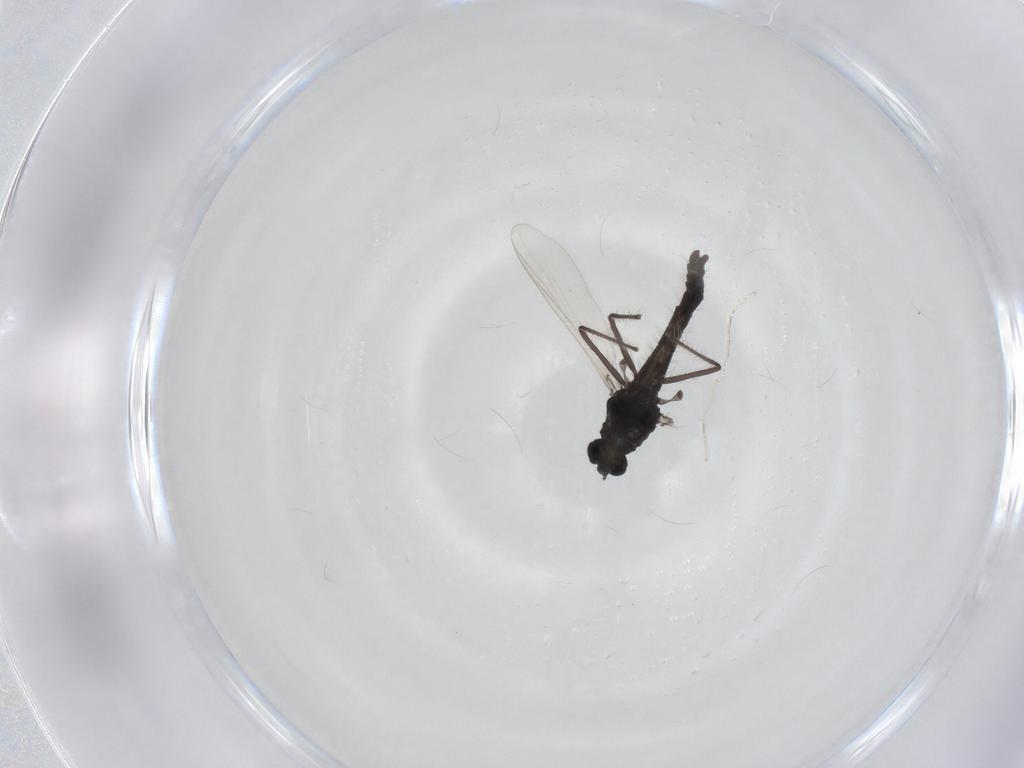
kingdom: Animalia
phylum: Arthropoda
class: Insecta
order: Diptera
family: Chironomidae
